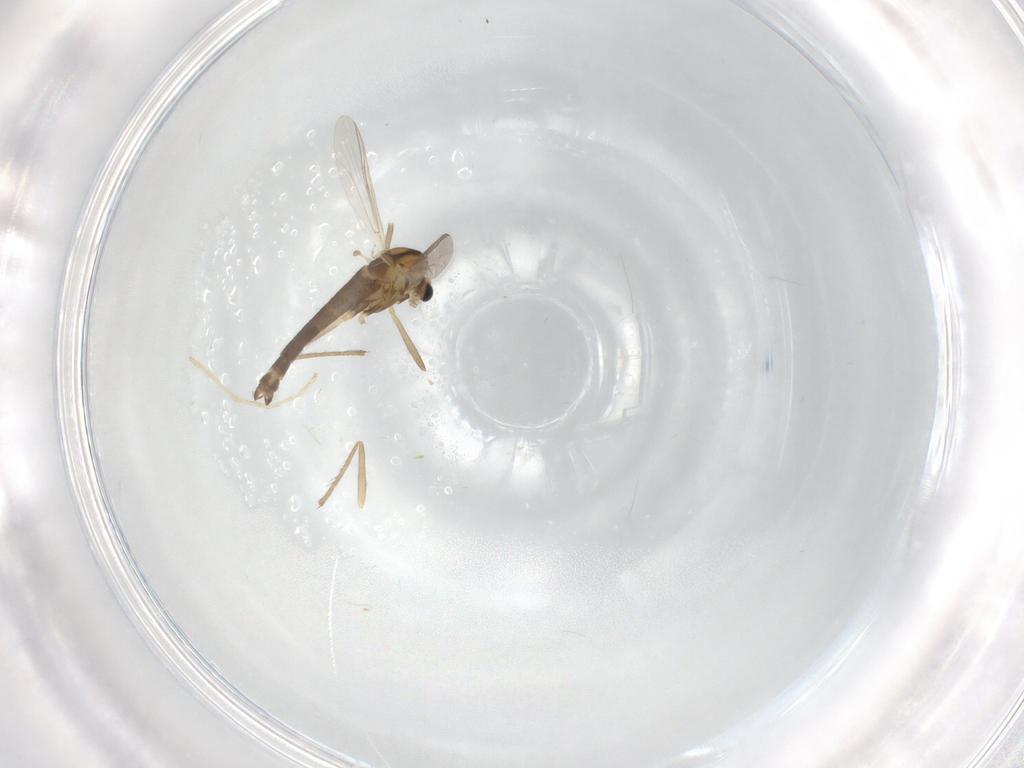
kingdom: Animalia
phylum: Arthropoda
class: Insecta
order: Diptera
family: Chironomidae
